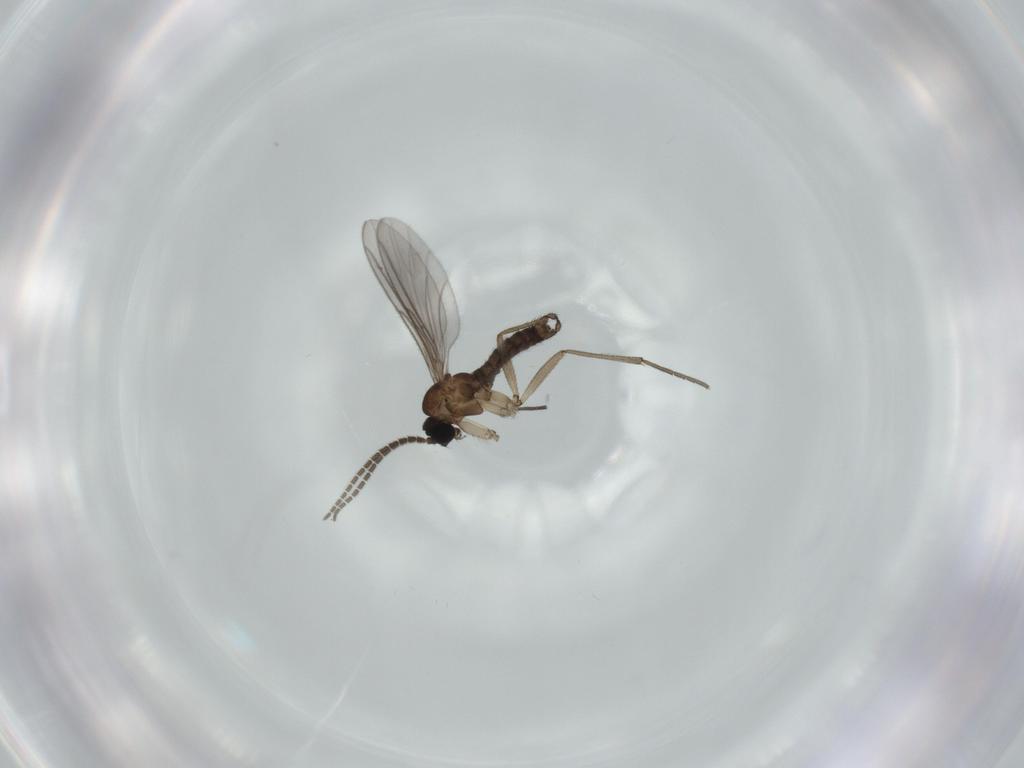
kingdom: Animalia
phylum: Arthropoda
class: Insecta
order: Diptera
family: Sciaridae
